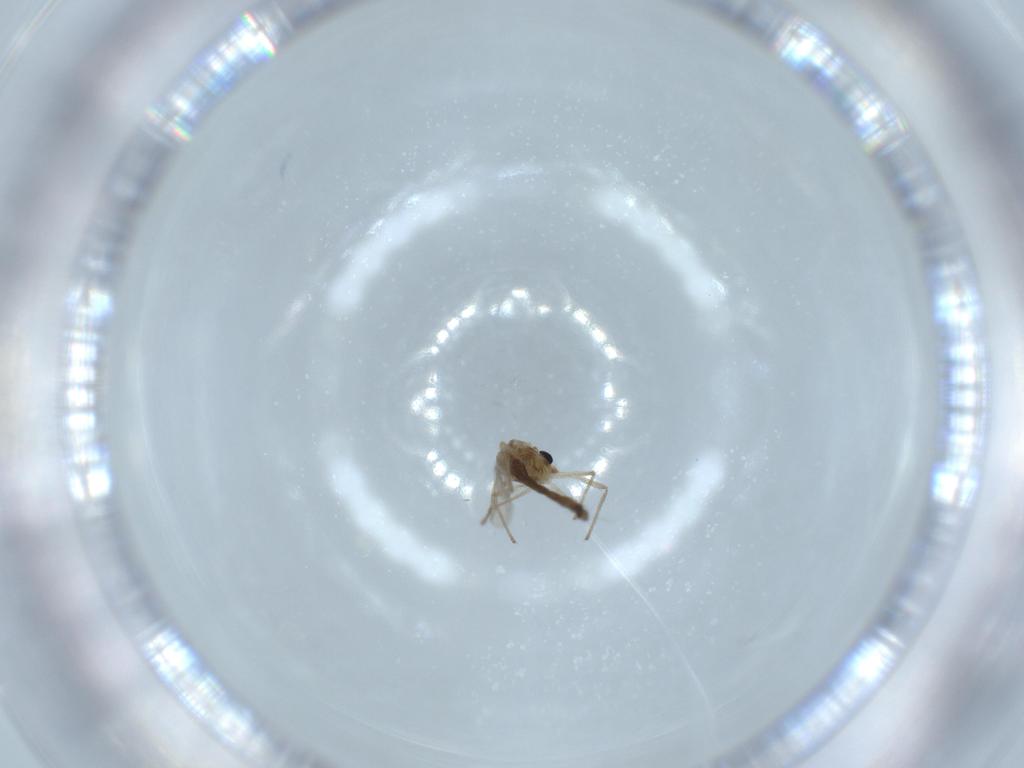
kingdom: Animalia
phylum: Arthropoda
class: Insecta
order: Diptera
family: Chironomidae
